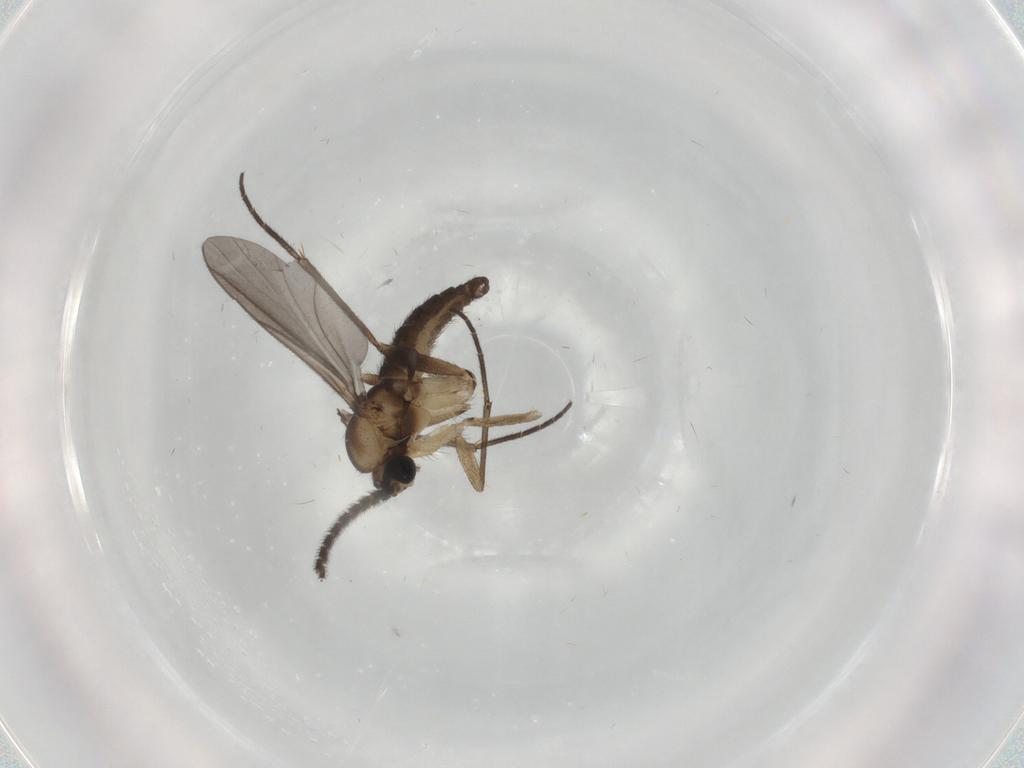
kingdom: Animalia
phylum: Arthropoda
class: Insecta
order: Diptera
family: Sciaridae
